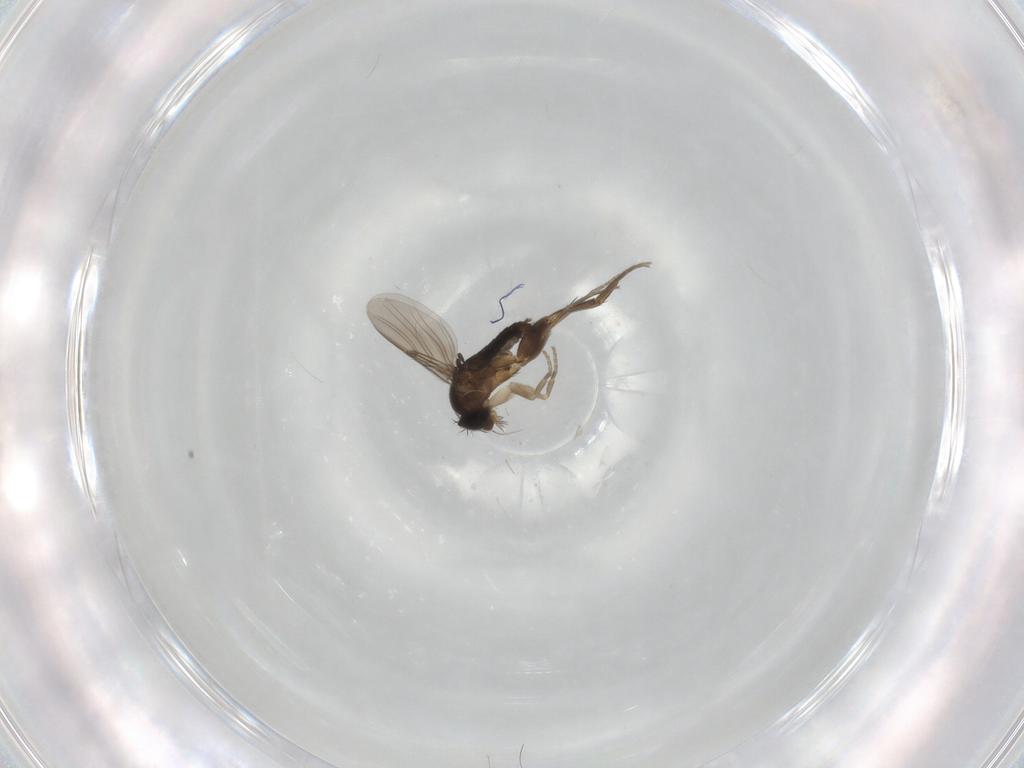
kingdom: Animalia
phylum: Arthropoda
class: Insecta
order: Diptera
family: Phoridae
